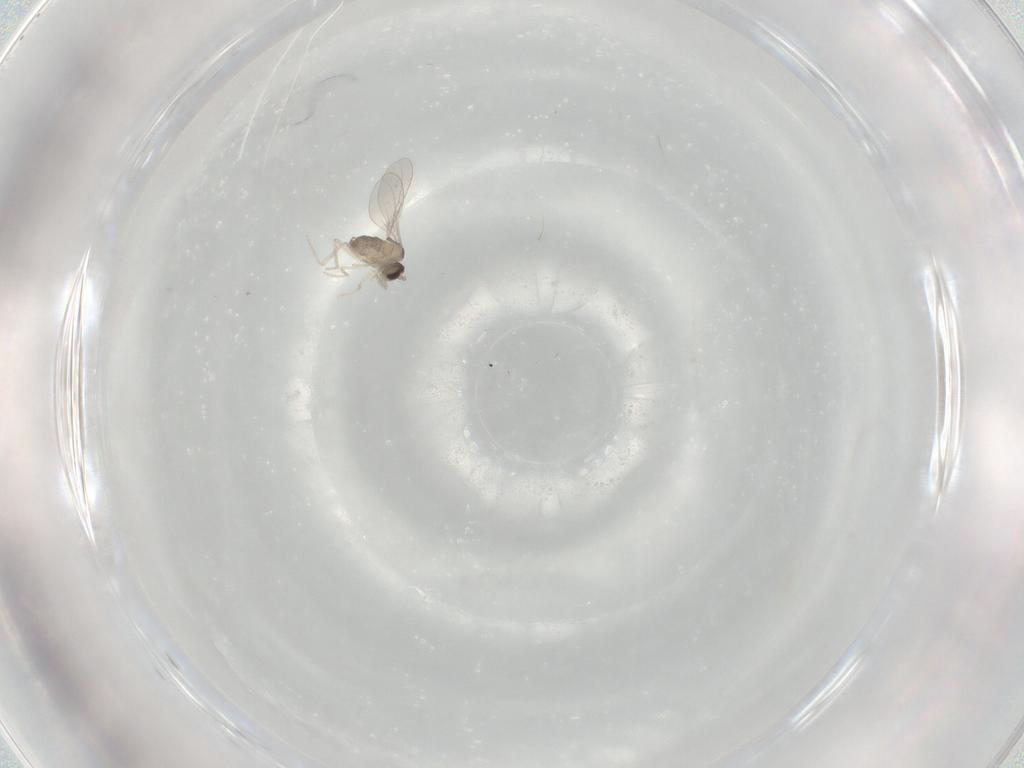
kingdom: Animalia
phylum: Arthropoda
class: Insecta
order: Diptera
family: Cecidomyiidae
